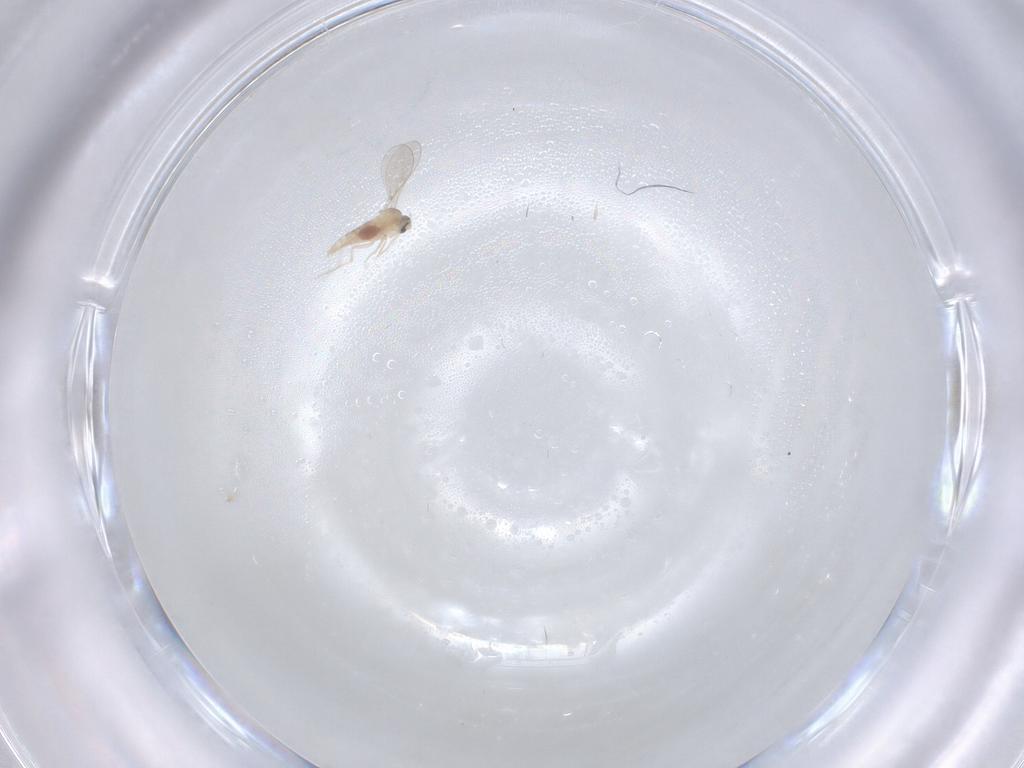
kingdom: Animalia
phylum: Arthropoda
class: Insecta
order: Diptera
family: Psychodidae
